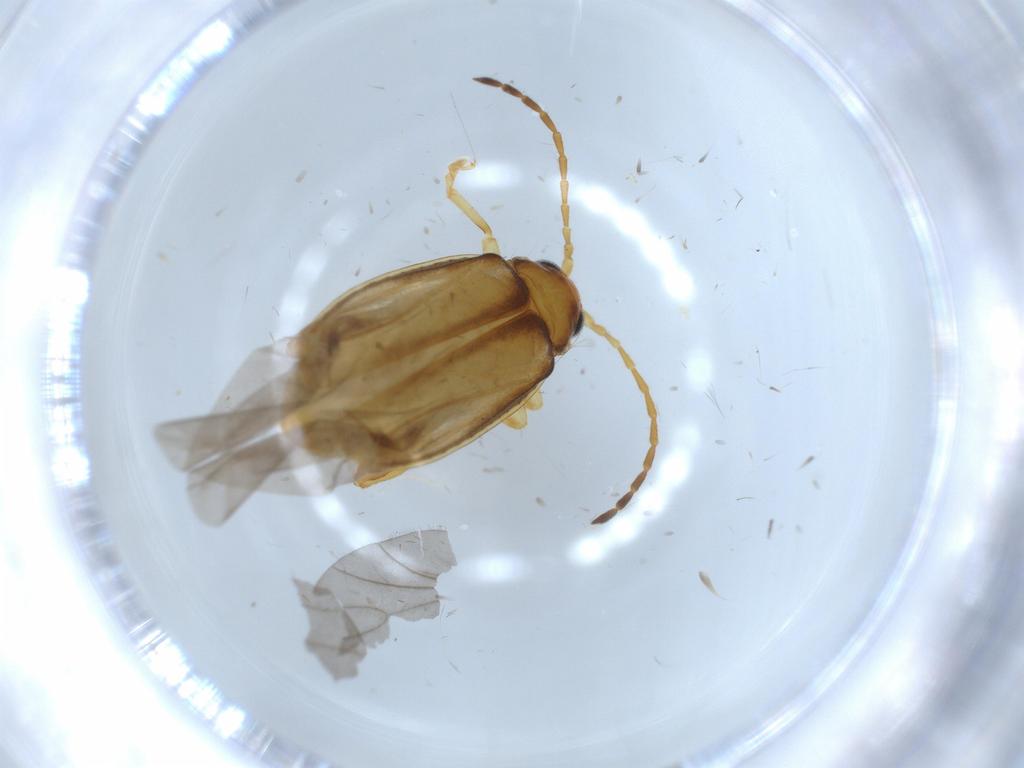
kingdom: Animalia
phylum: Arthropoda
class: Insecta
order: Coleoptera
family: Chrysomelidae
